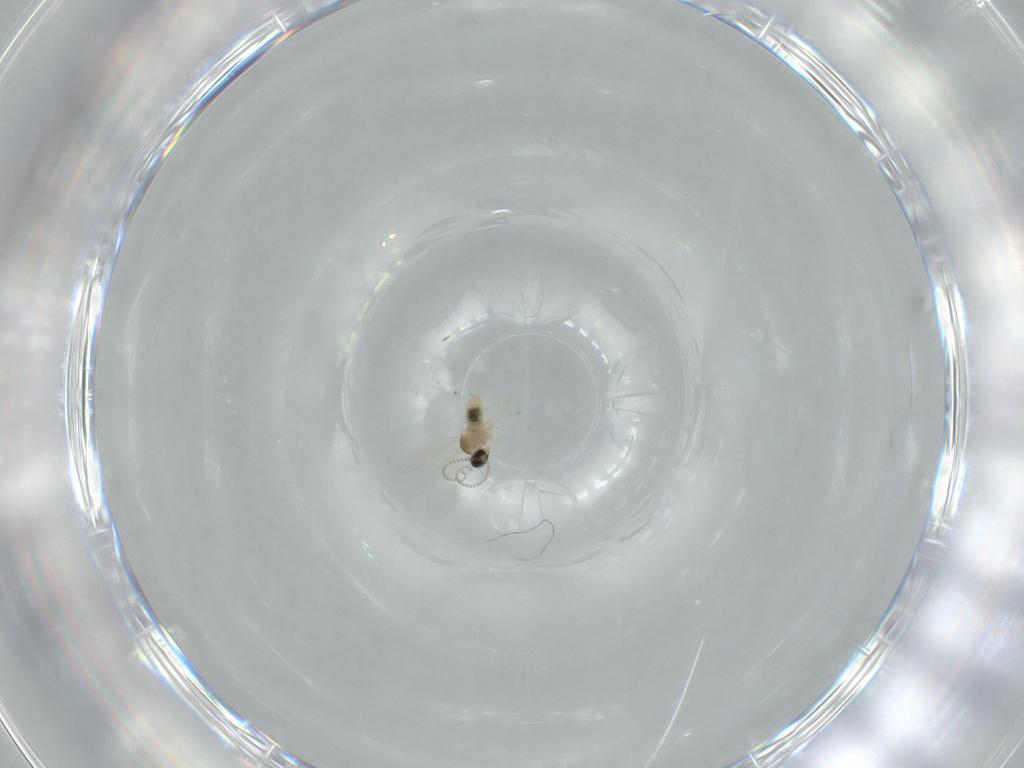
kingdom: Animalia
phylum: Arthropoda
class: Insecta
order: Diptera
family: Cecidomyiidae
